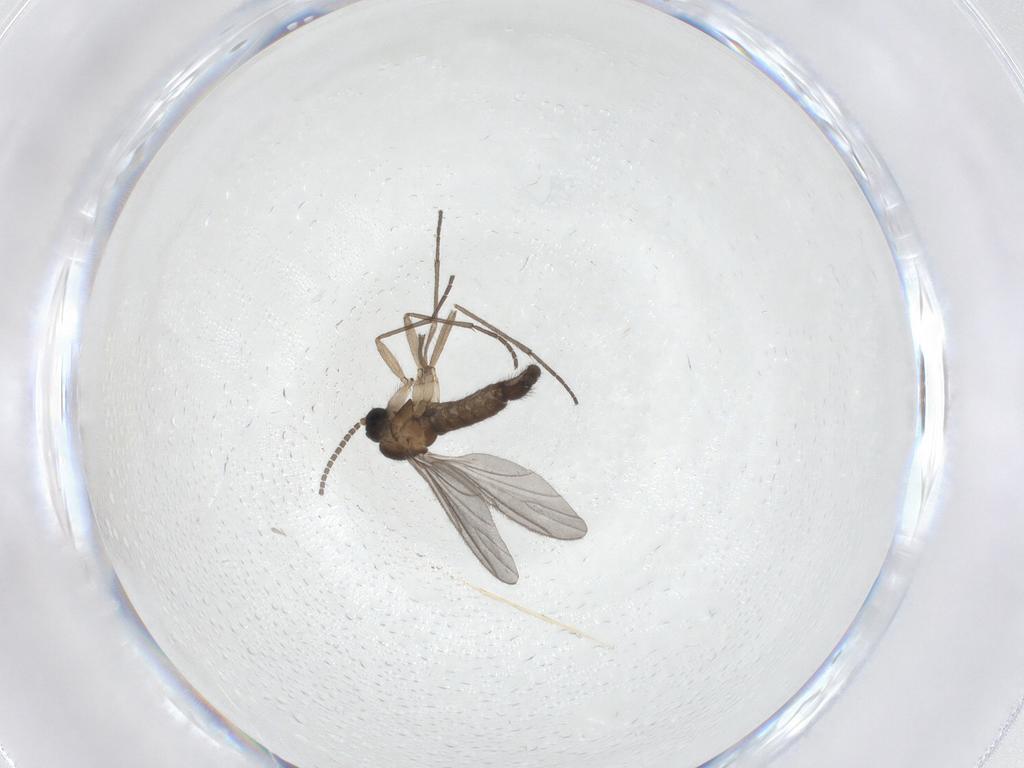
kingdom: Animalia
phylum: Arthropoda
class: Insecta
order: Diptera
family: Sciaridae
